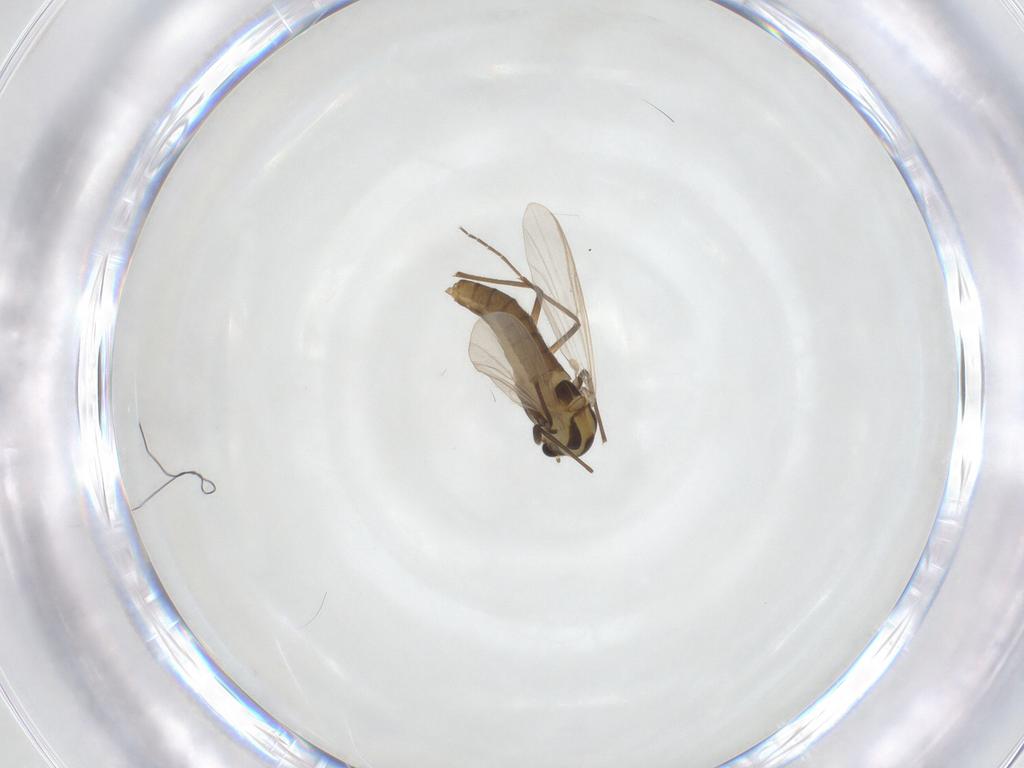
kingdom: Animalia
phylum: Arthropoda
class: Insecta
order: Diptera
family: Chironomidae
